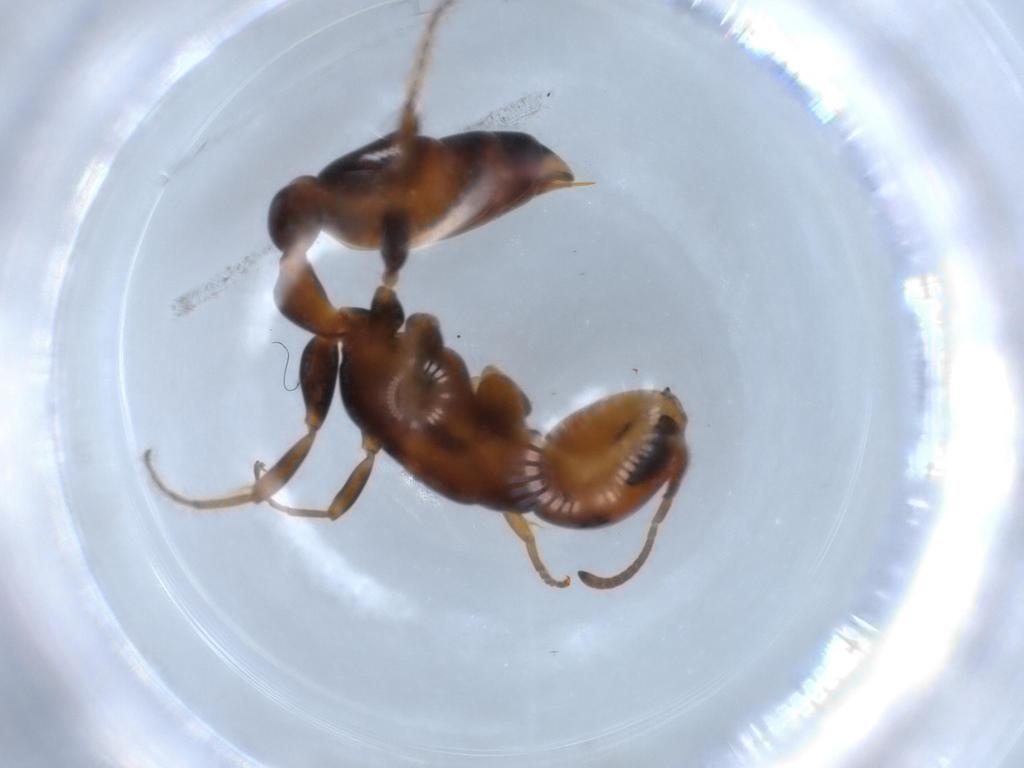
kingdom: Animalia
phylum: Arthropoda
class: Insecta
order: Hymenoptera
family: Formicidae
